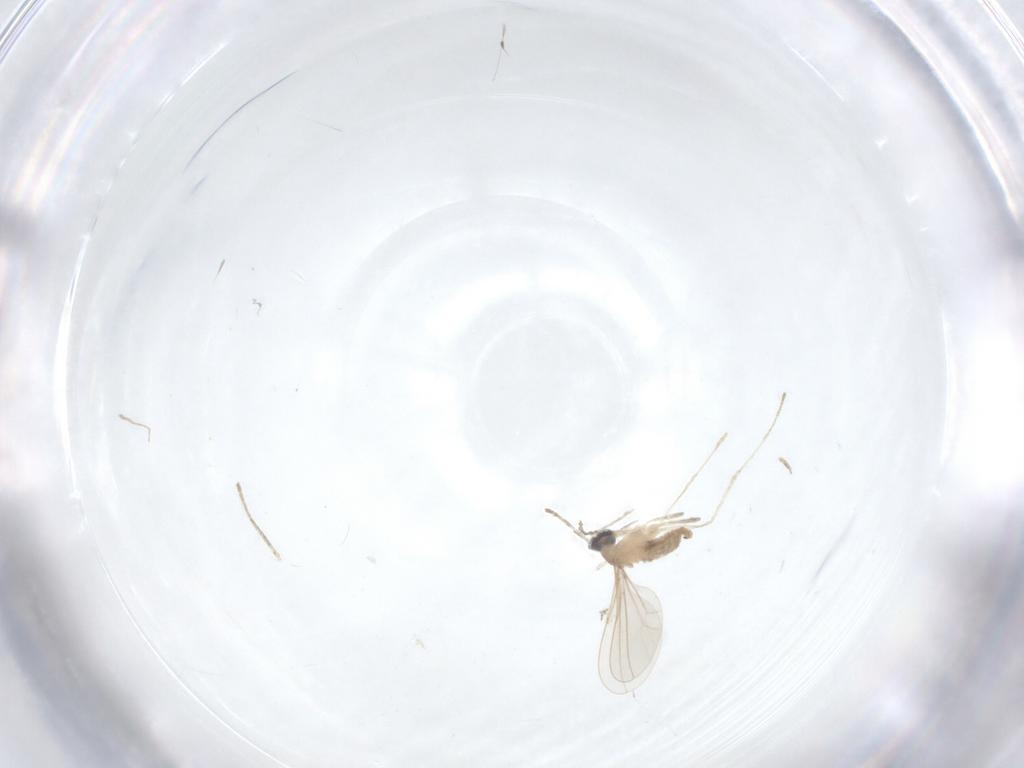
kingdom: Animalia
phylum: Arthropoda
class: Insecta
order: Diptera
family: Cecidomyiidae
